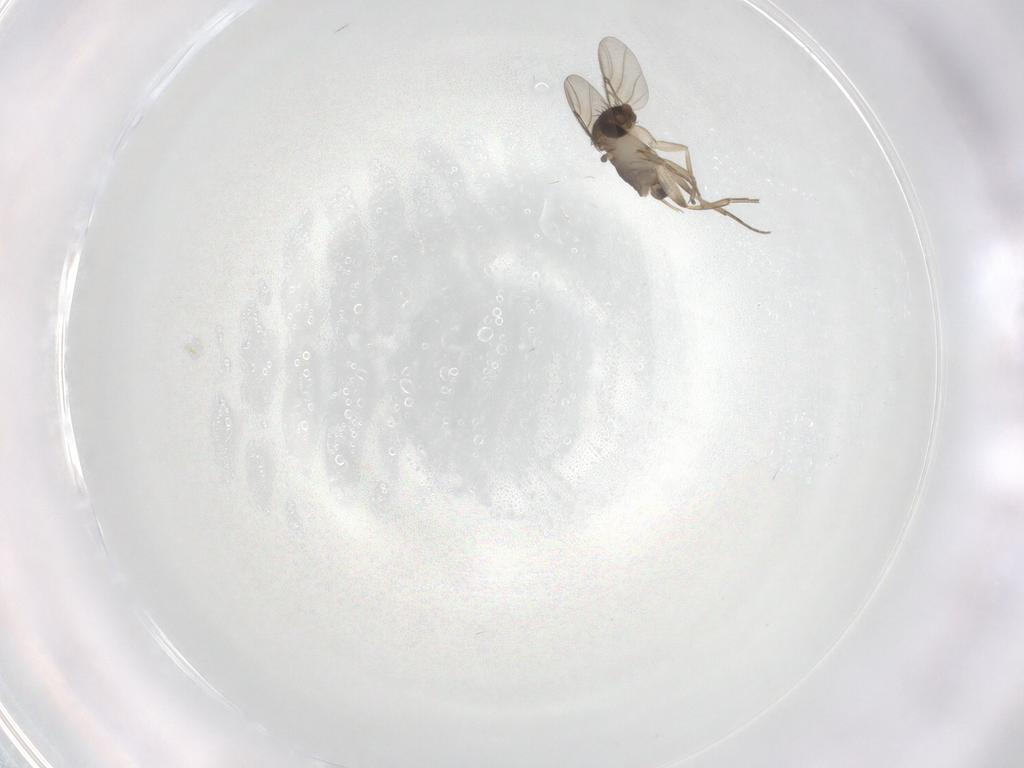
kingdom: Animalia
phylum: Arthropoda
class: Insecta
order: Diptera
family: Phoridae
